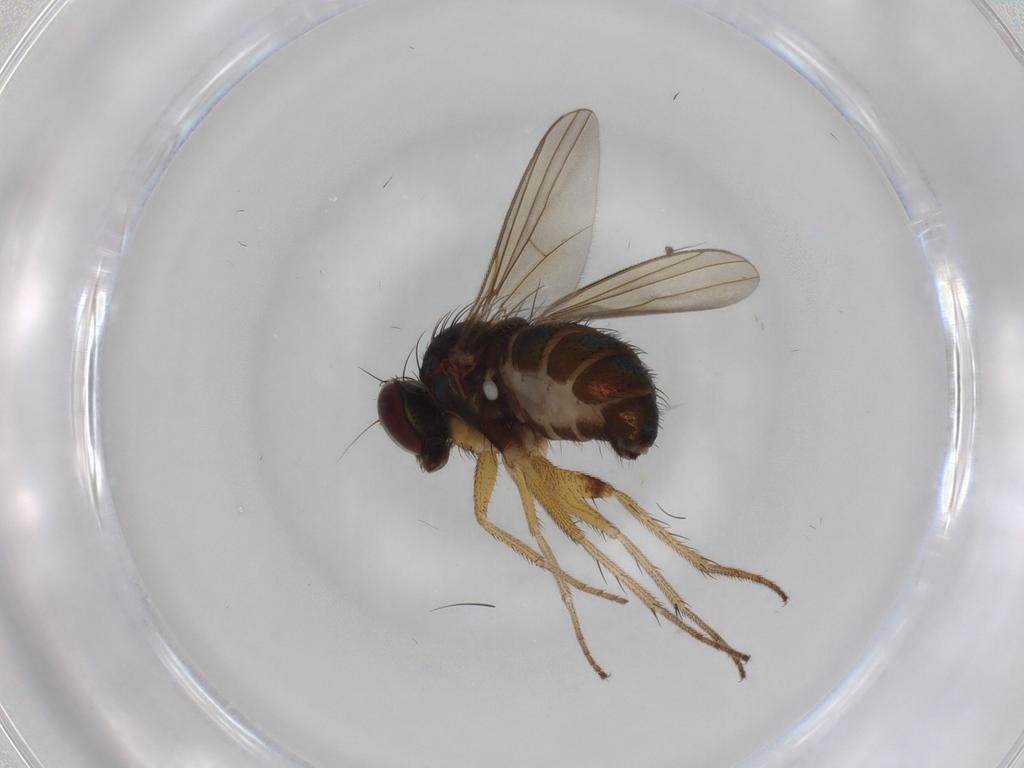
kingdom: Animalia
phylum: Arthropoda
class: Insecta
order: Diptera
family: Dolichopodidae
